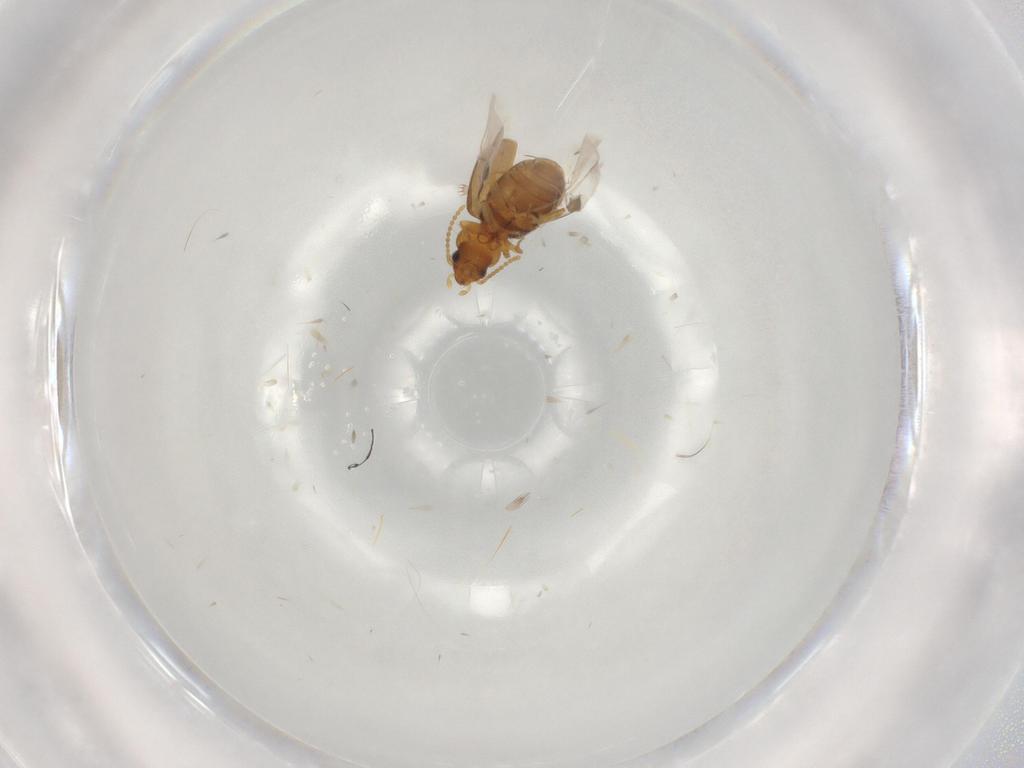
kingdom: Animalia
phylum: Arthropoda
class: Insecta
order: Coleoptera
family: Carabidae
